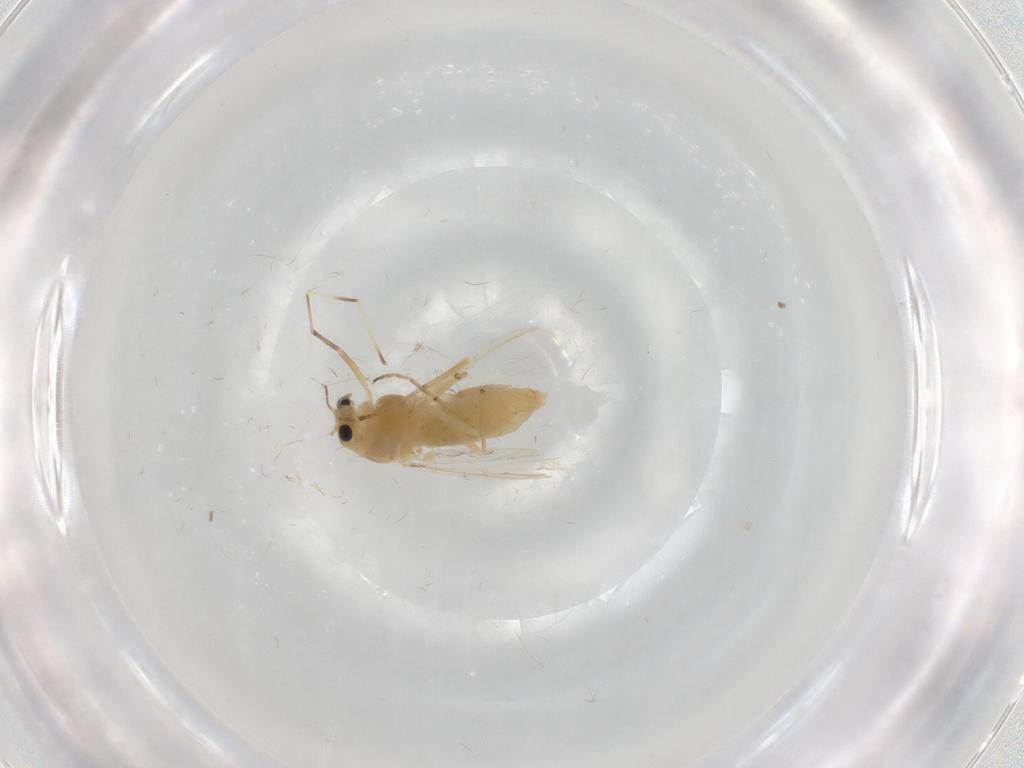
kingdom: Animalia
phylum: Arthropoda
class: Insecta
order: Diptera
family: Chironomidae
